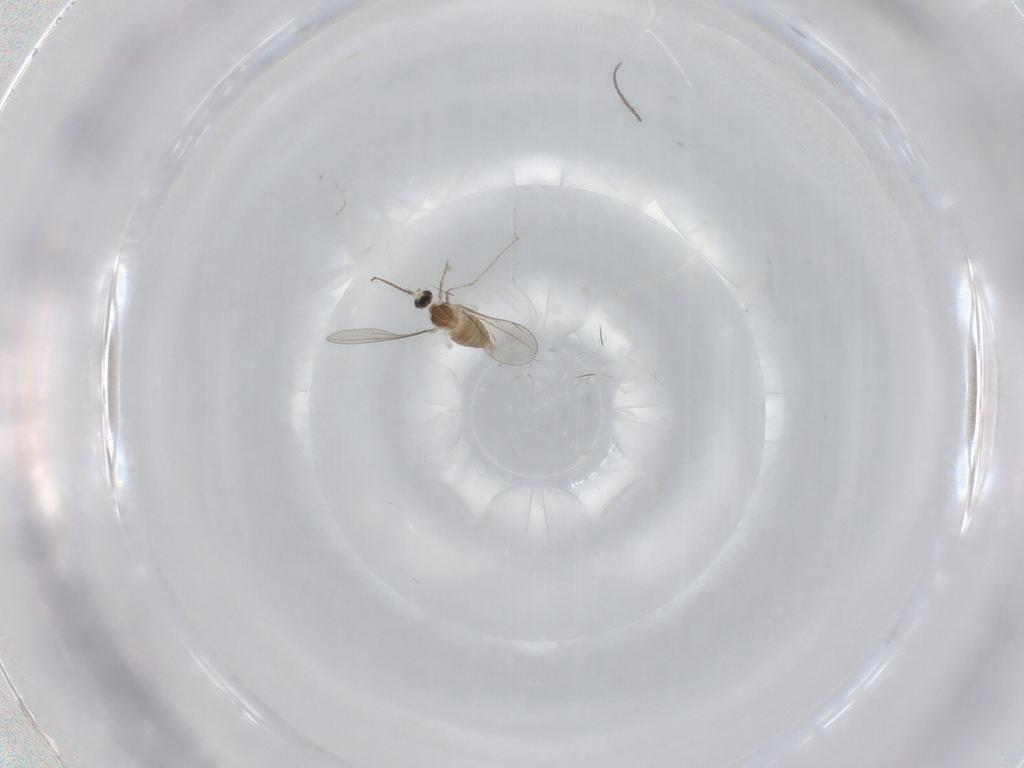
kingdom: Animalia
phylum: Arthropoda
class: Insecta
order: Diptera
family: Cecidomyiidae
